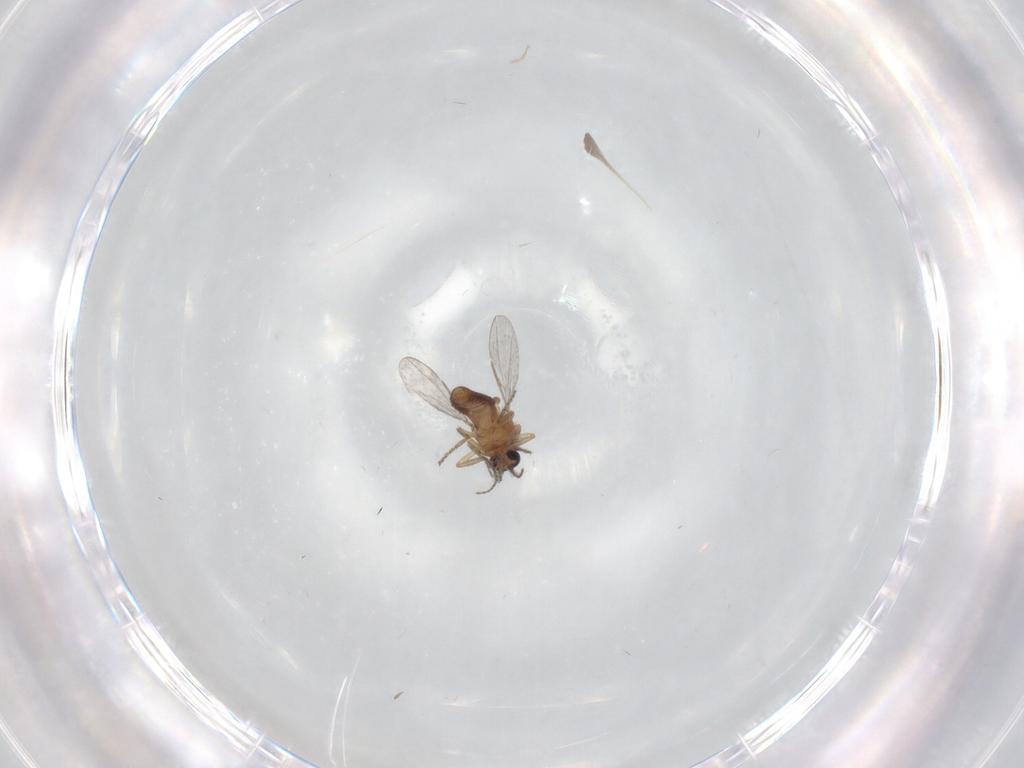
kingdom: Animalia
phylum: Arthropoda
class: Insecta
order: Diptera
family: Ceratopogonidae
